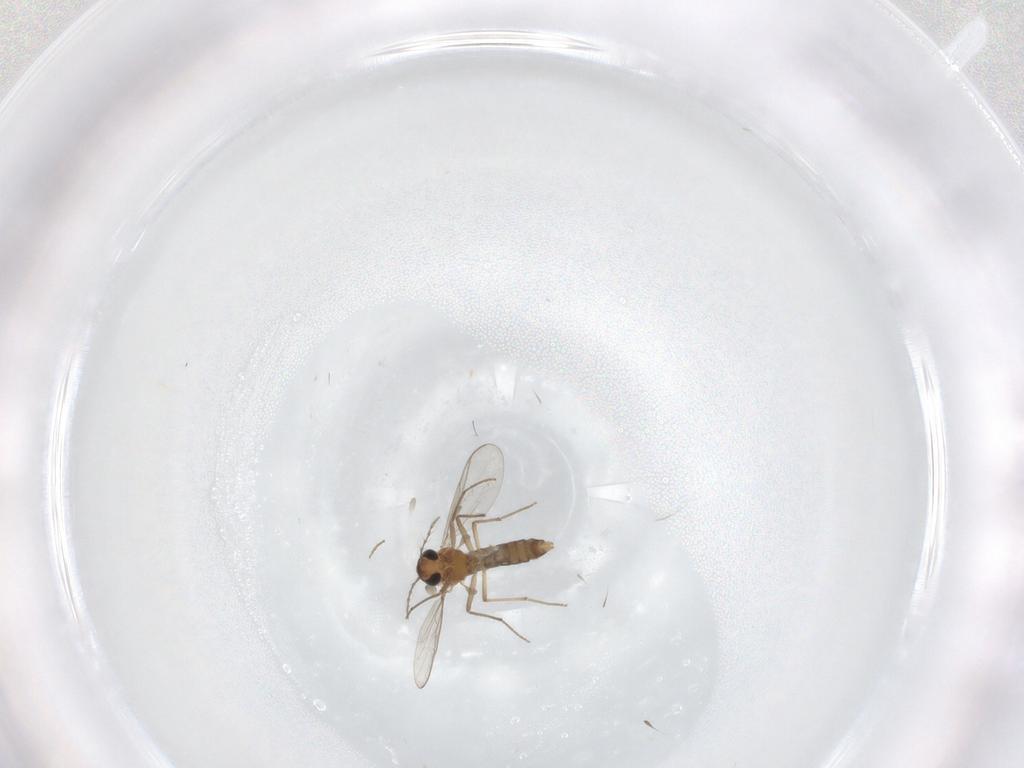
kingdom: Animalia
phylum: Arthropoda
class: Insecta
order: Diptera
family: Chironomidae
